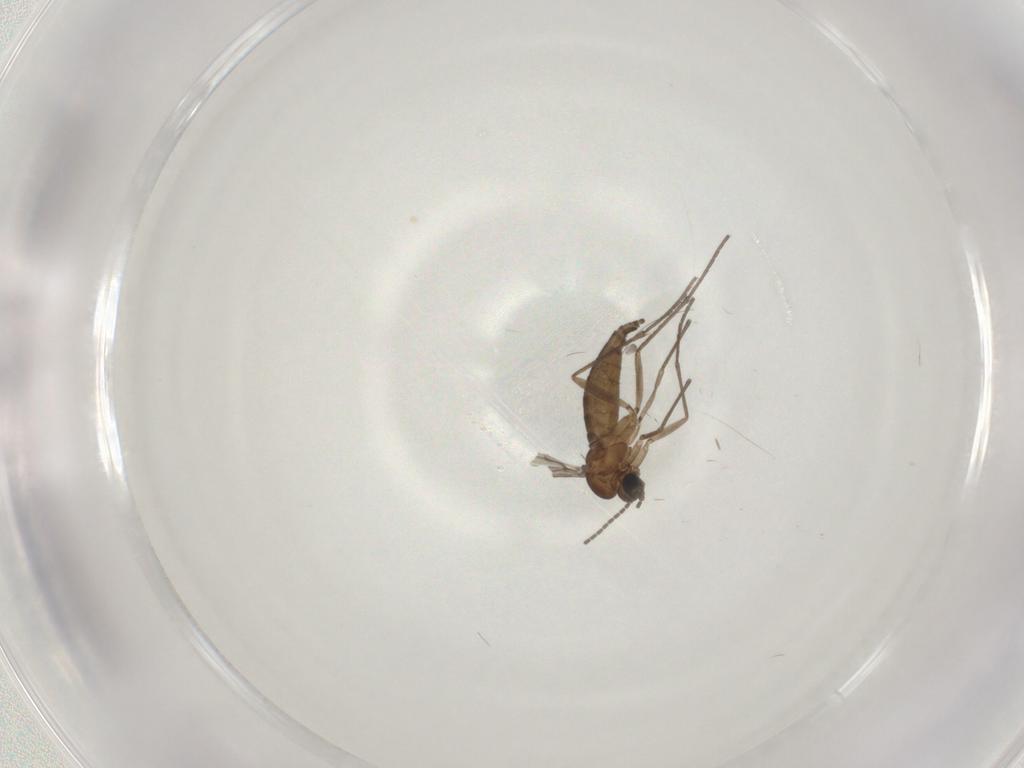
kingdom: Animalia
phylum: Arthropoda
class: Insecta
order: Diptera
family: Sciaridae
